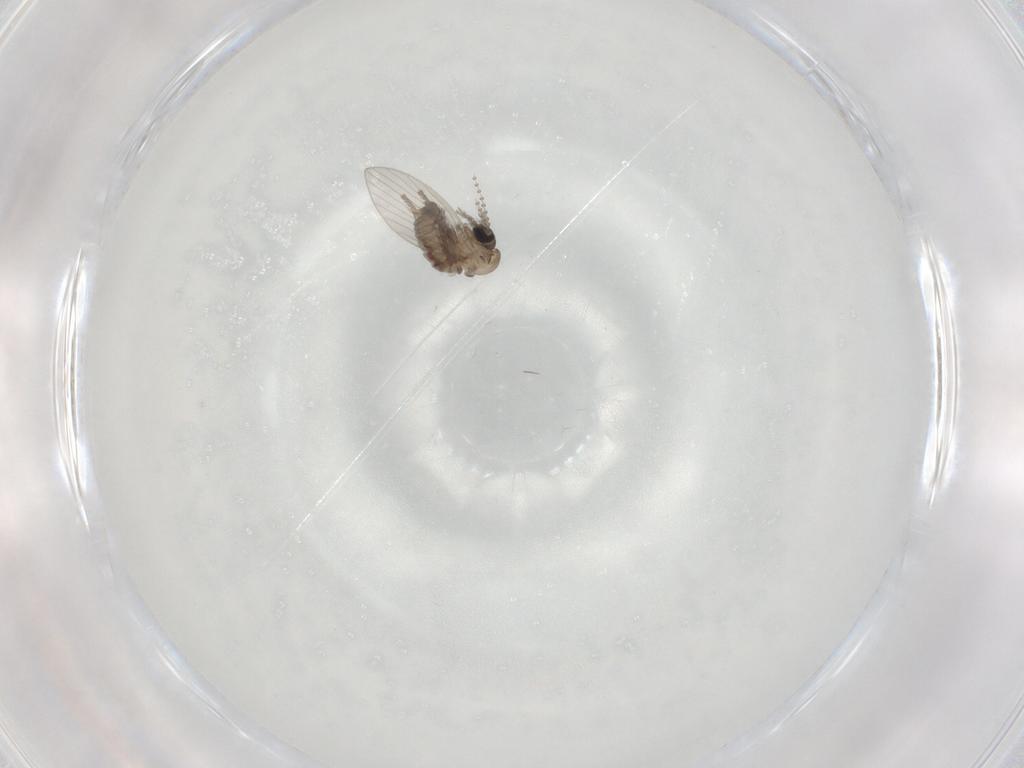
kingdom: Animalia
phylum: Arthropoda
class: Insecta
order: Diptera
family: Psychodidae
